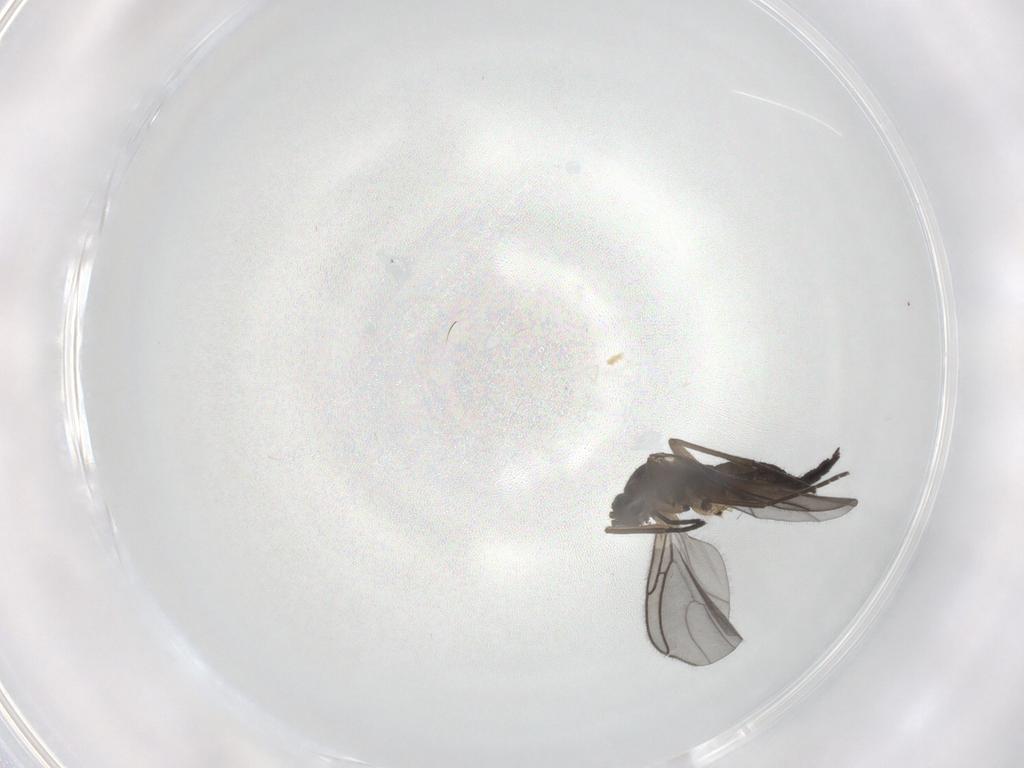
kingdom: Animalia
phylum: Arthropoda
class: Insecta
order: Diptera
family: Sciaridae
